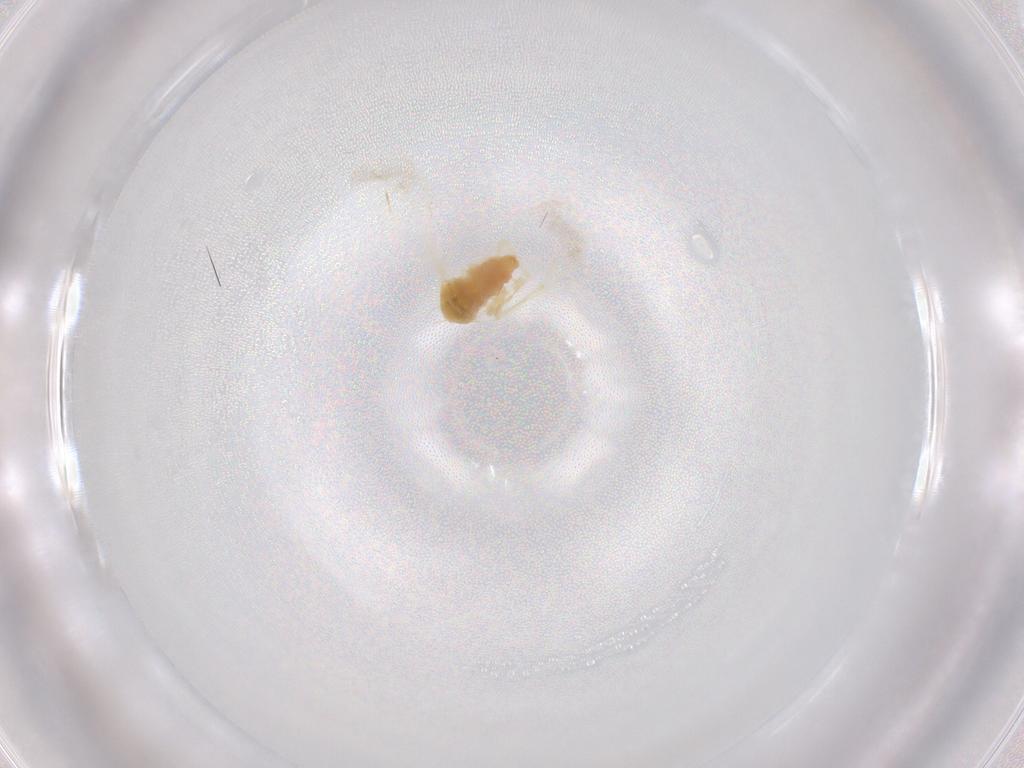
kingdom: Animalia
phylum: Arthropoda
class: Insecta
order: Hemiptera
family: Aleyrodidae
